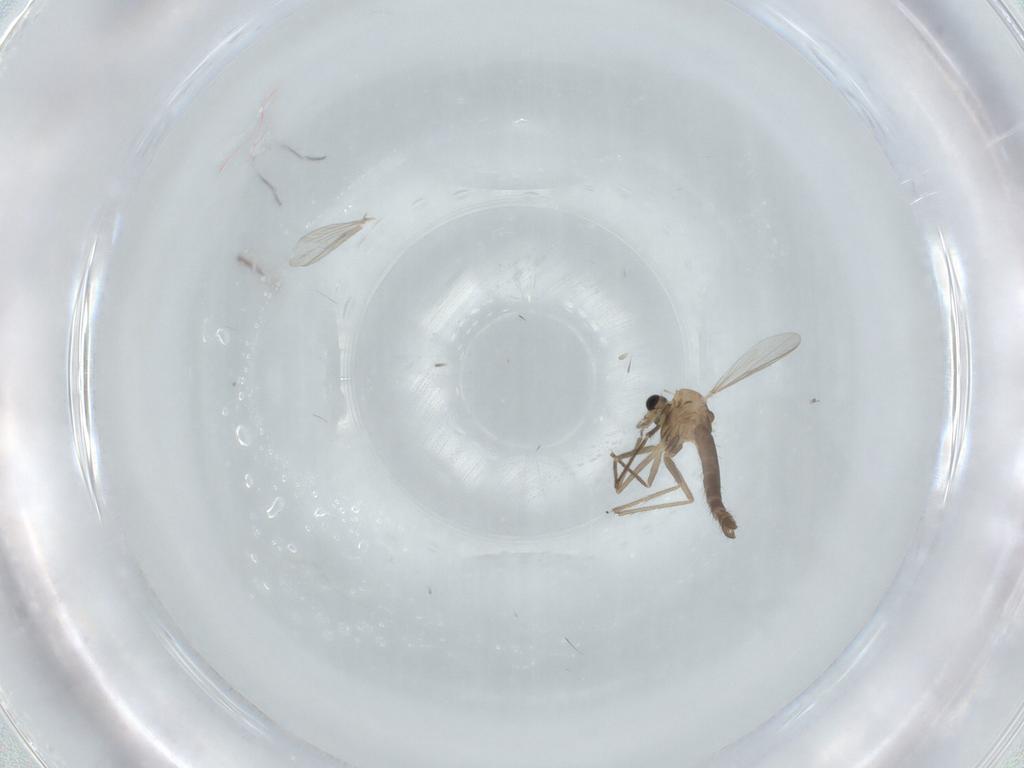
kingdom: Animalia
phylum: Arthropoda
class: Insecta
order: Diptera
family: Chironomidae
